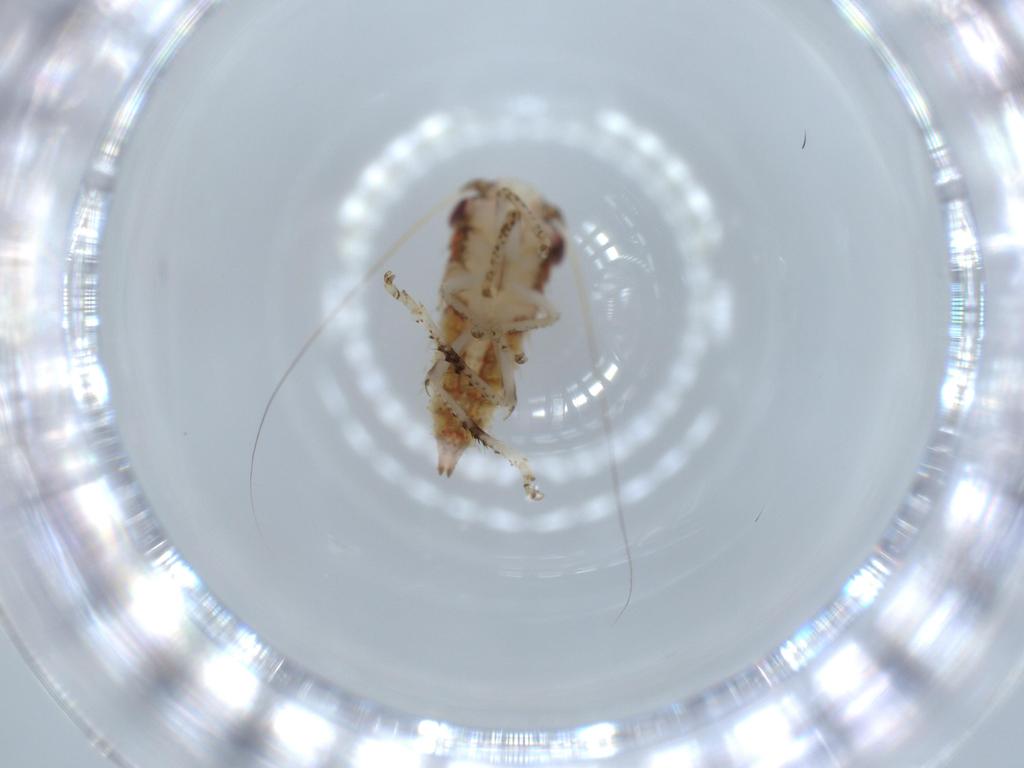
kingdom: Animalia
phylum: Arthropoda
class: Insecta
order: Hemiptera
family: Cicadellidae
